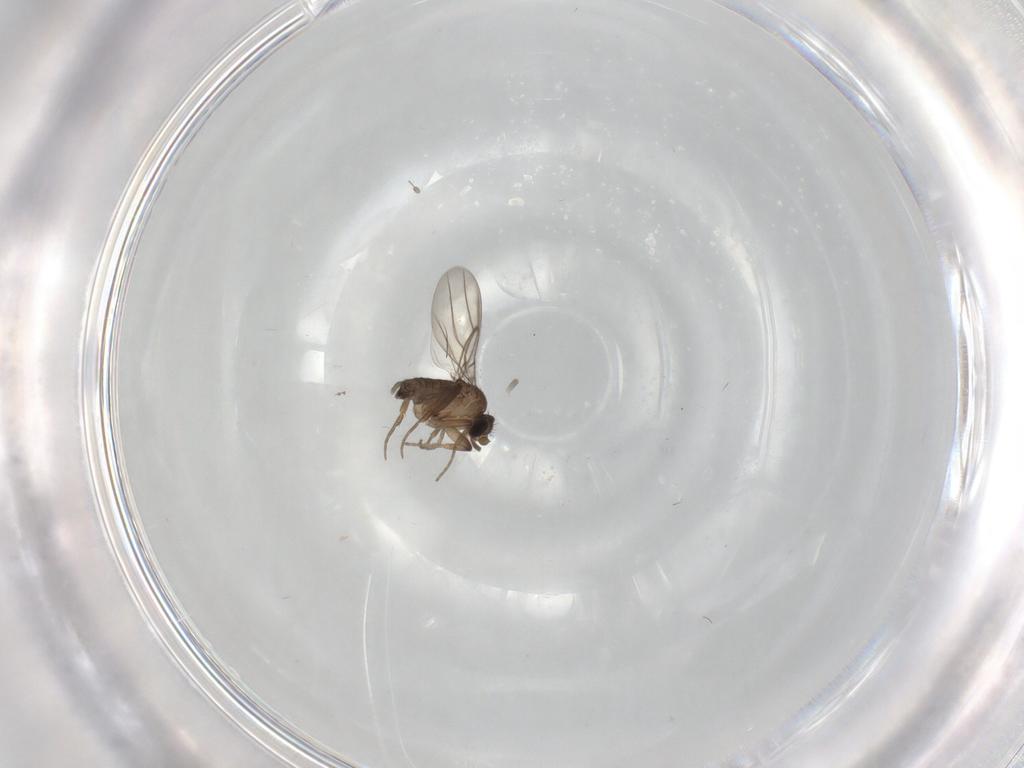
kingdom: Animalia
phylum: Arthropoda
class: Insecta
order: Diptera
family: Phoridae
